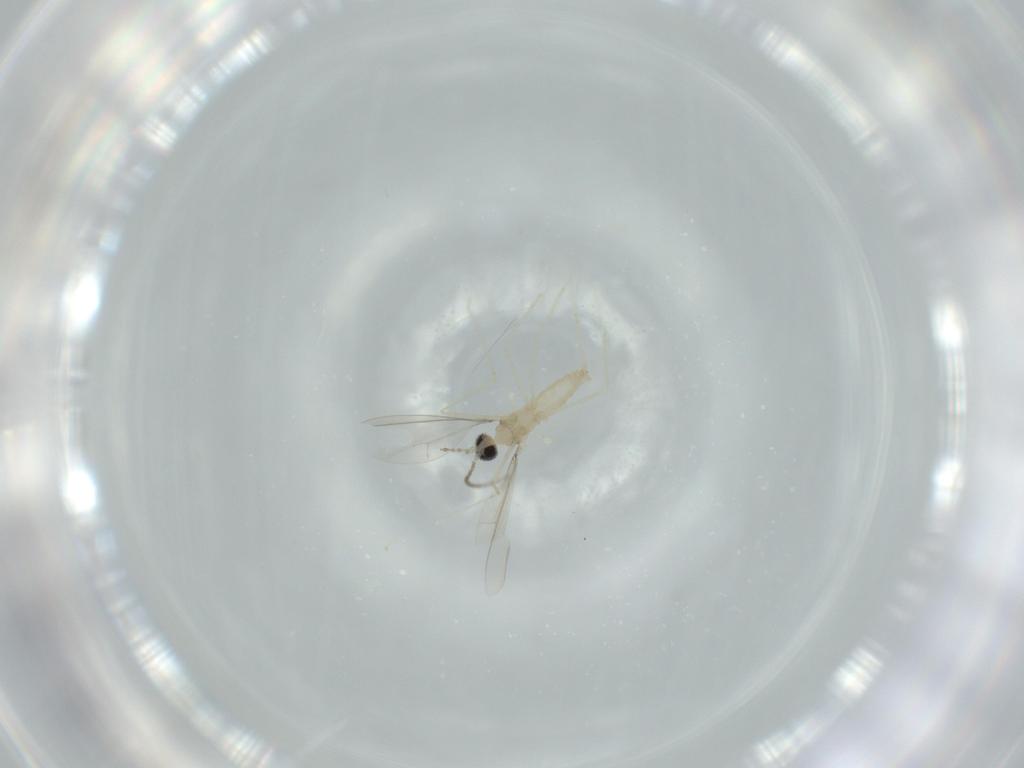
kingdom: Animalia
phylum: Arthropoda
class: Insecta
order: Diptera
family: Cecidomyiidae
